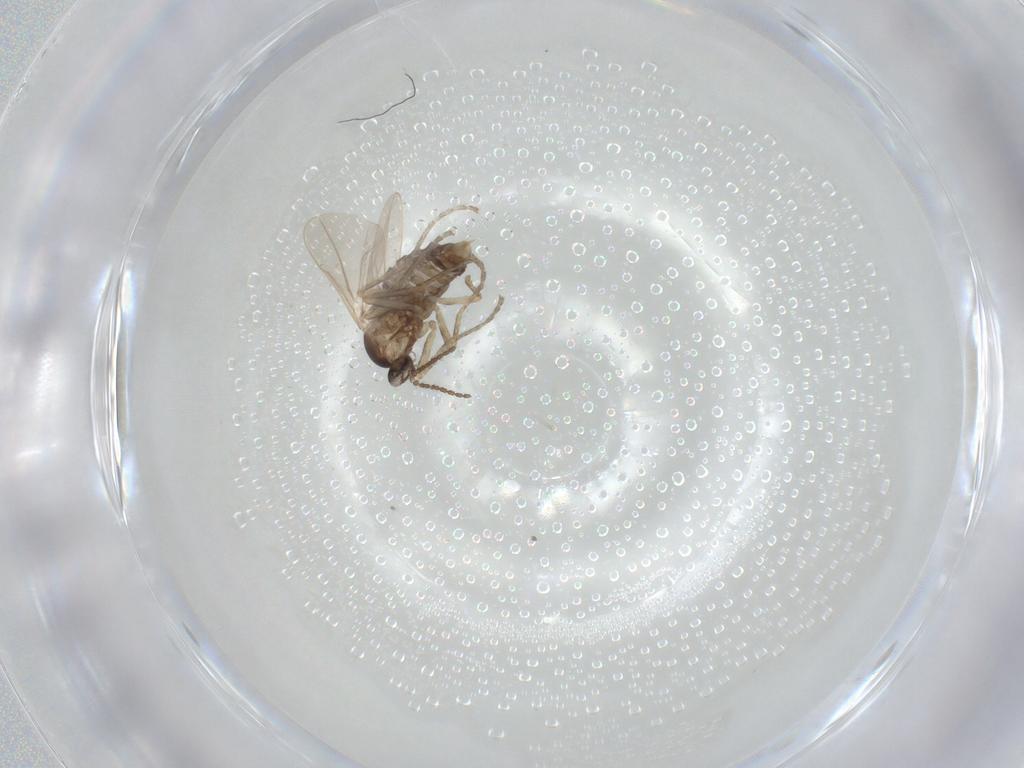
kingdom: Animalia
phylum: Arthropoda
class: Insecta
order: Diptera
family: Cecidomyiidae
